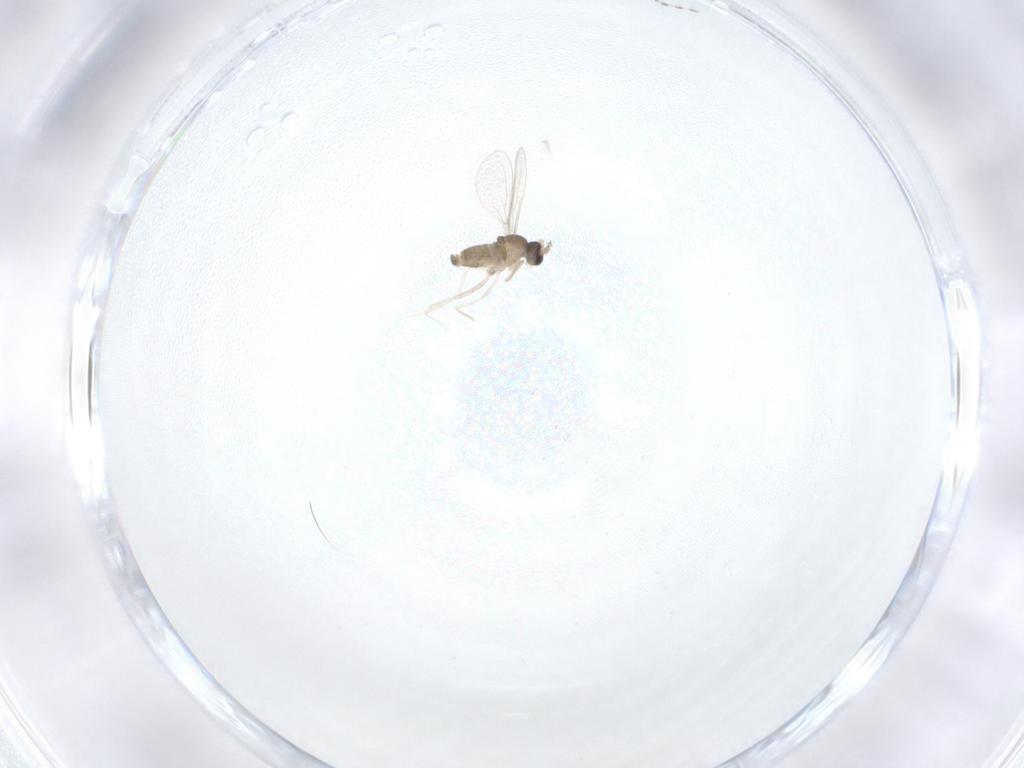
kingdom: Animalia
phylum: Arthropoda
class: Insecta
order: Diptera
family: Cecidomyiidae
